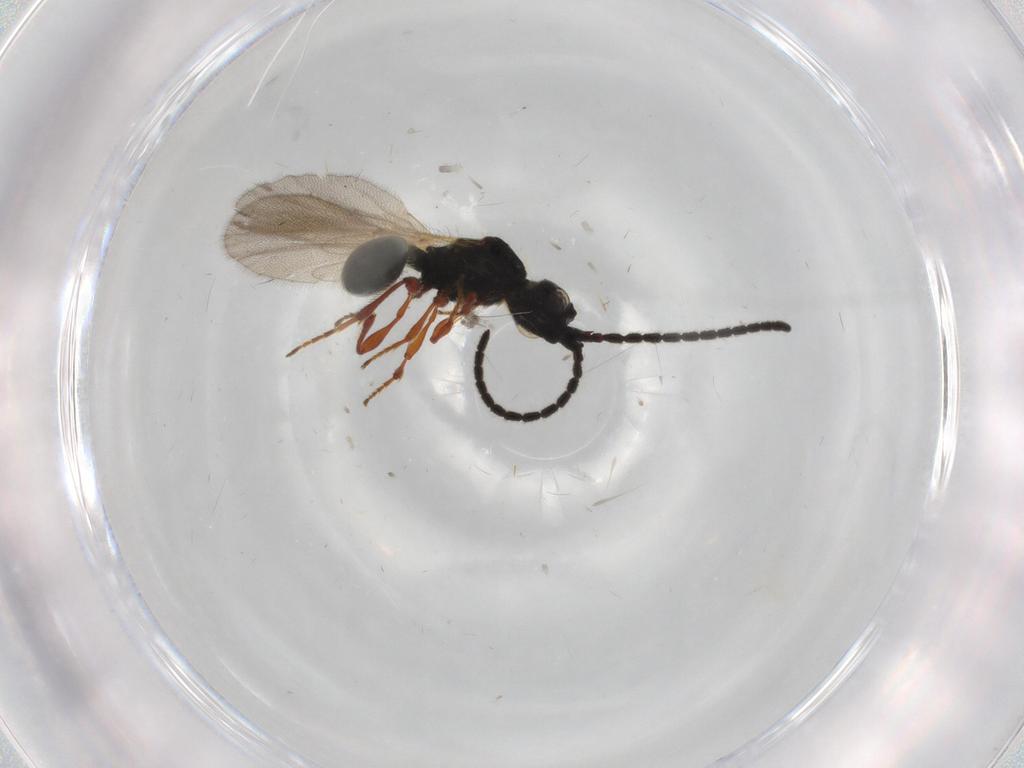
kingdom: Animalia
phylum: Arthropoda
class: Insecta
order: Hymenoptera
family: Diapriidae
